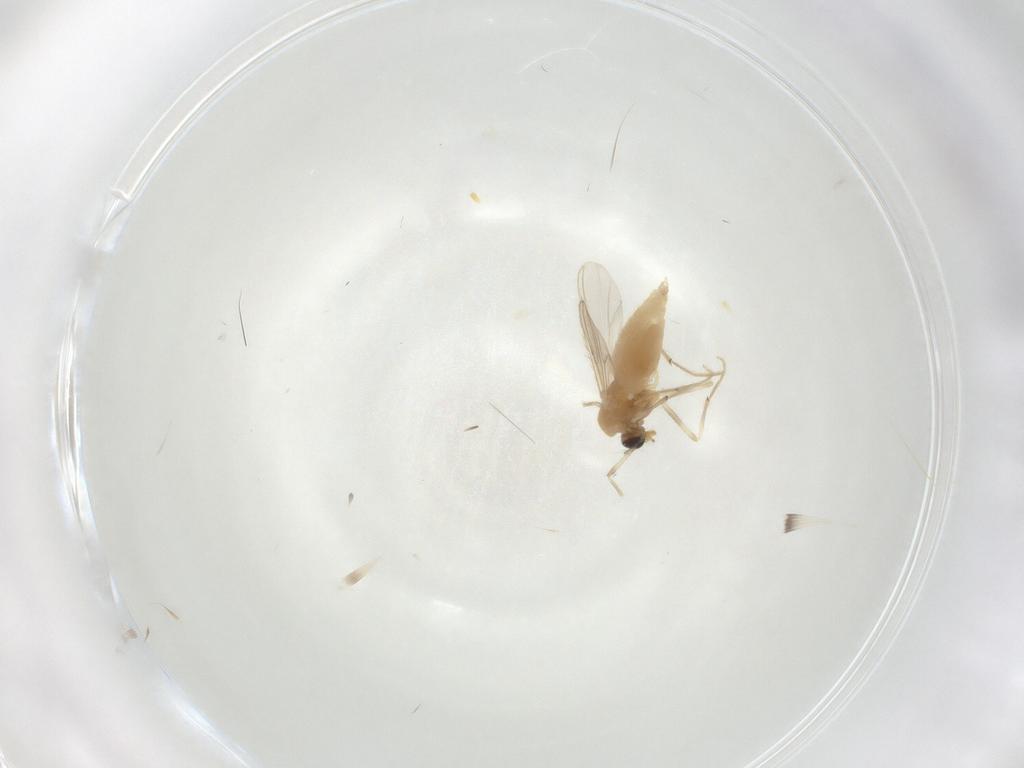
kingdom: Animalia
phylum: Arthropoda
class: Insecta
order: Diptera
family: Chironomidae
